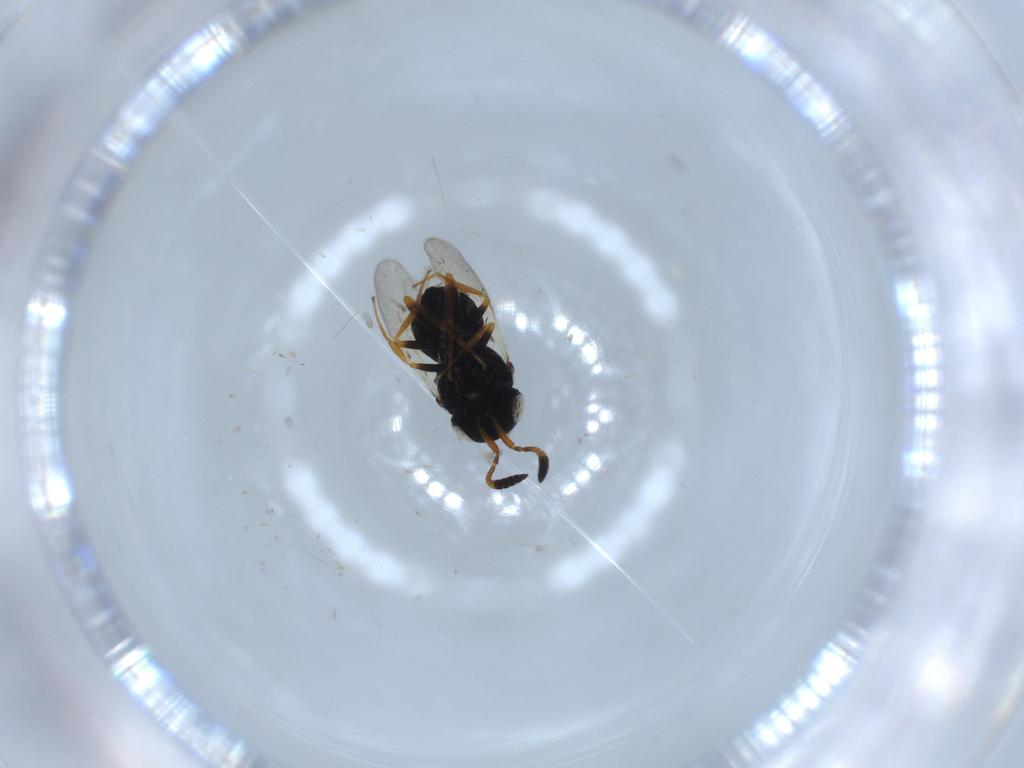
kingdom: Animalia
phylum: Arthropoda
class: Insecta
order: Hymenoptera
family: Scelionidae
